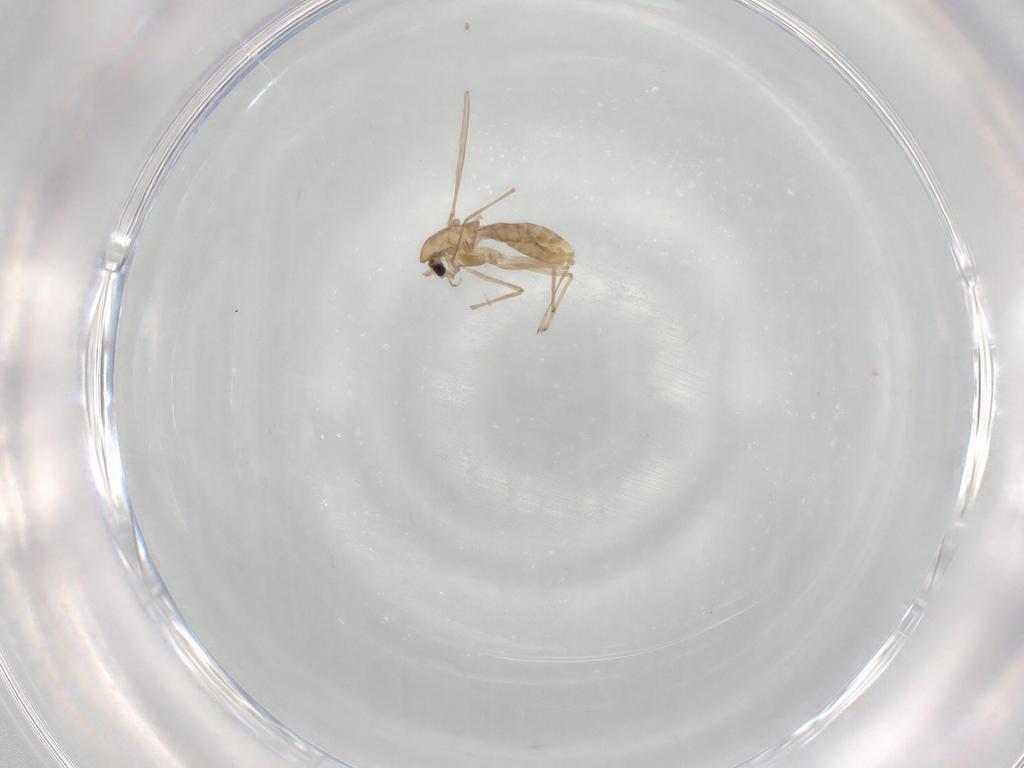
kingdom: Animalia
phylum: Arthropoda
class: Insecta
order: Diptera
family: Chironomidae
